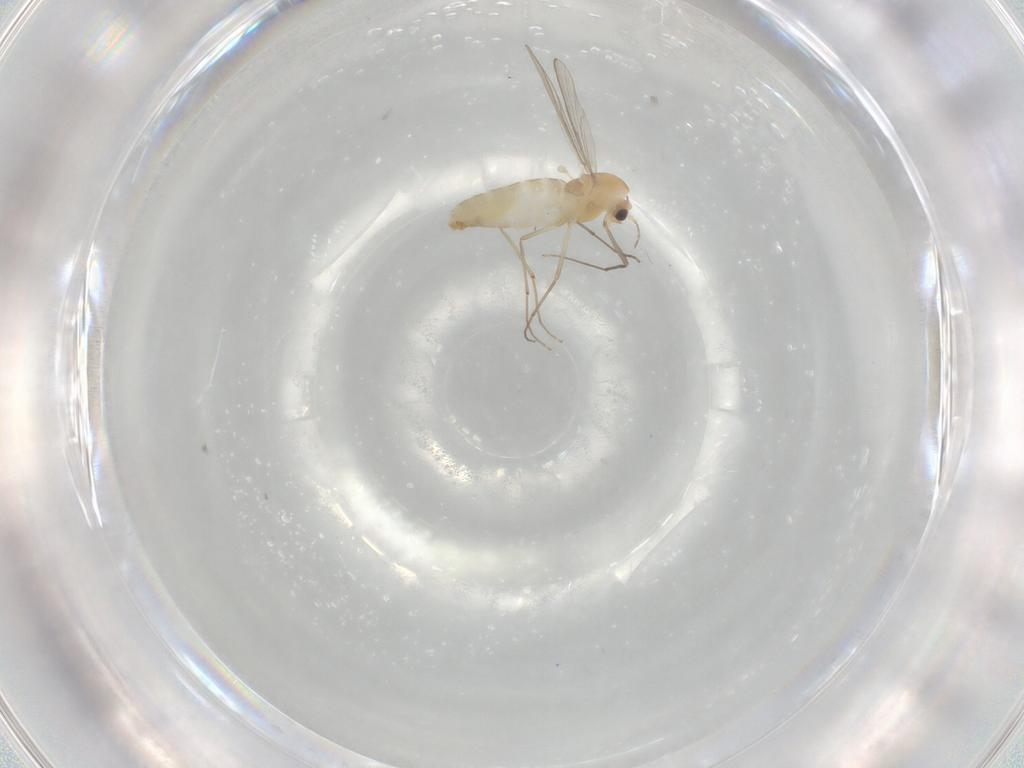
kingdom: Animalia
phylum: Arthropoda
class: Insecta
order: Diptera
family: Chironomidae
